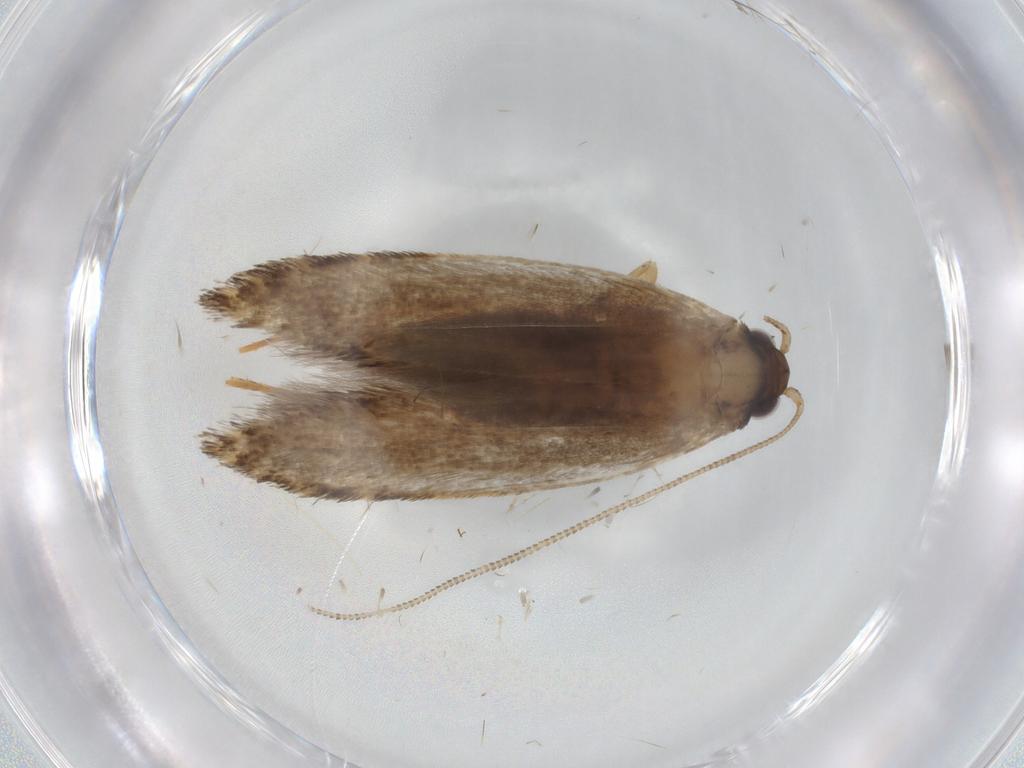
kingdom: Animalia
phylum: Arthropoda
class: Insecta
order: Lepidoptera
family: Tineidae
